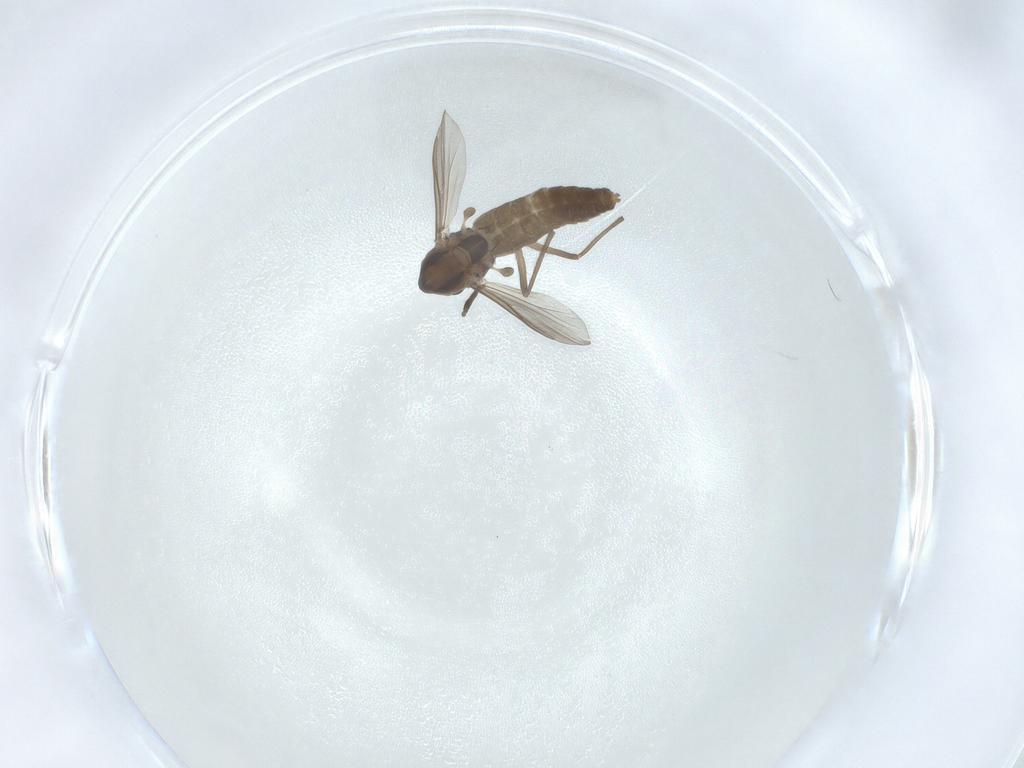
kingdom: Animalia
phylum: Arthropoda
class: Insecta
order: Diptera
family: Chironomidae
